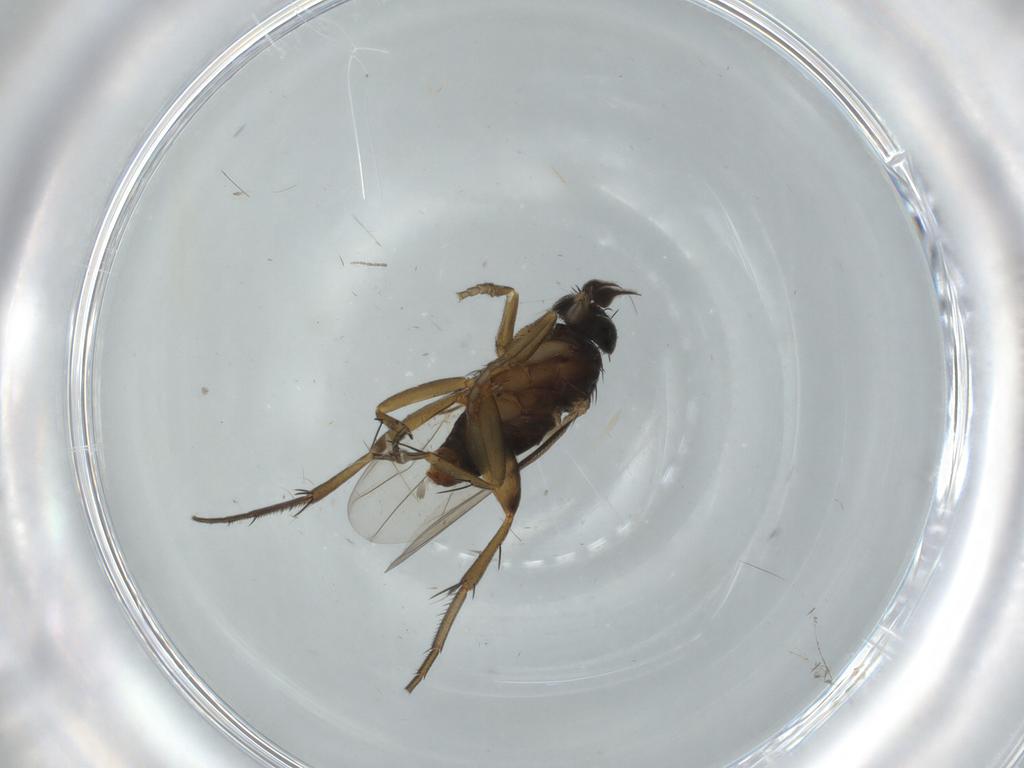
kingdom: Animalia
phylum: Arthropoda
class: Insecta
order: Diptera
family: Phoridae
